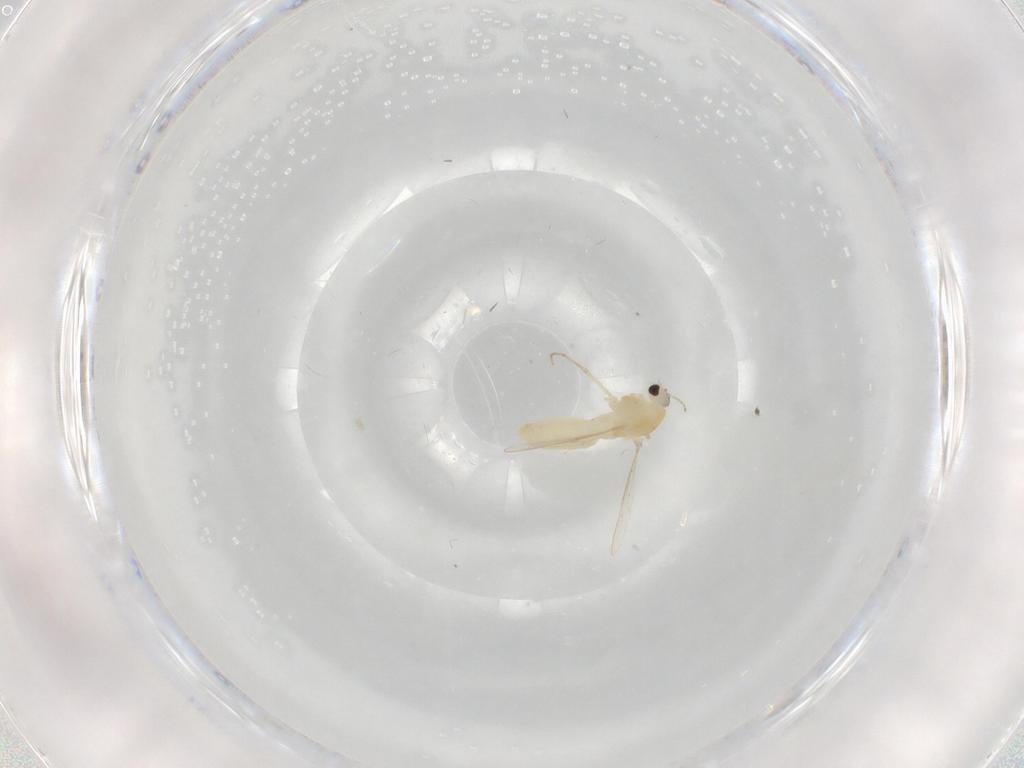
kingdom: Animalia
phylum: Arthropoda
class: Insecta
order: Diptera
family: Chironomidae
